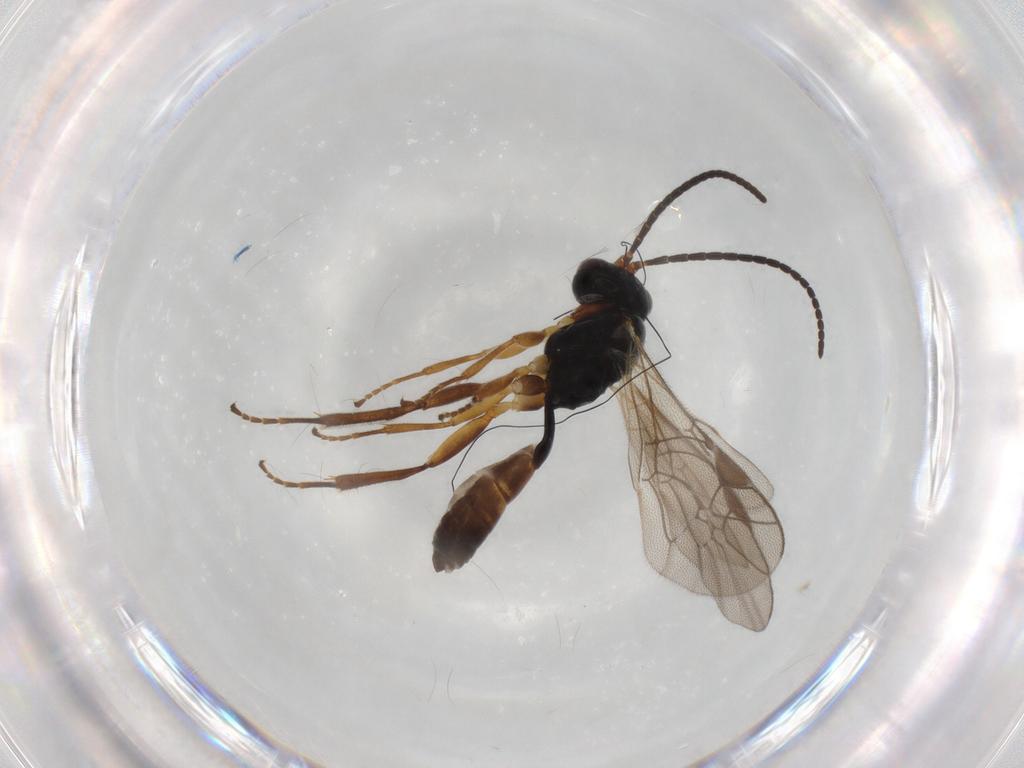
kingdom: Animalia
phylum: Arthropoda
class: Insecta
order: Hymenoptera
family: Ichneumonidae
